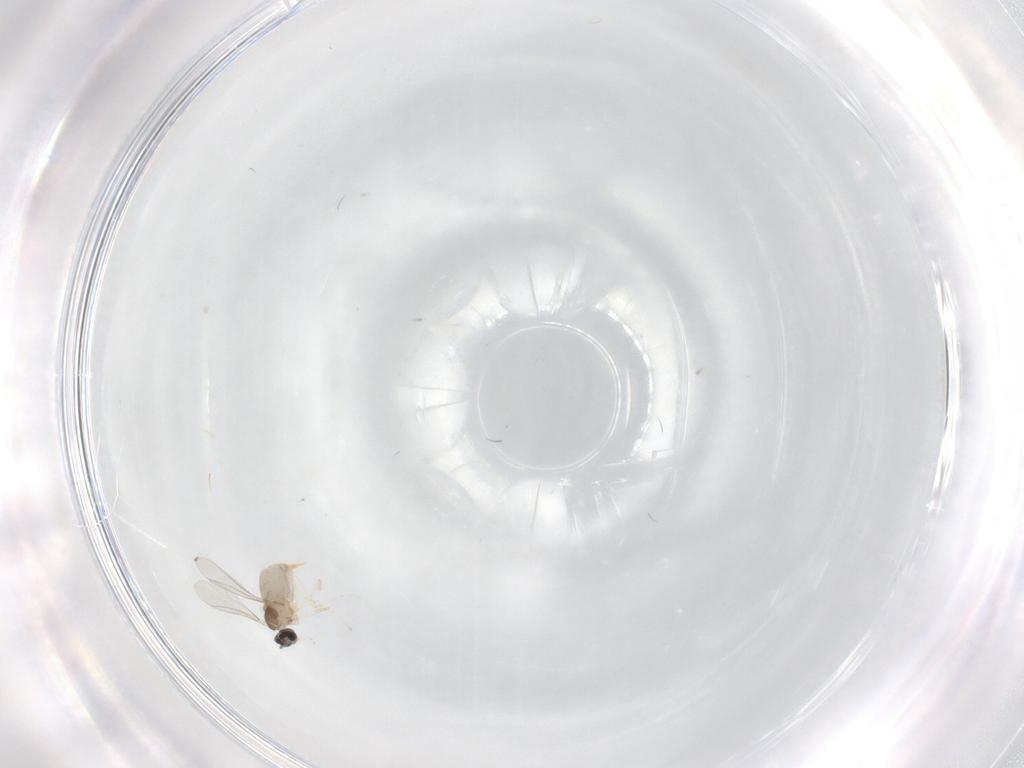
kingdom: Animalia
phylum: Arthropoda
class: Insecta
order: Diptera
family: Cecidomyiidae
